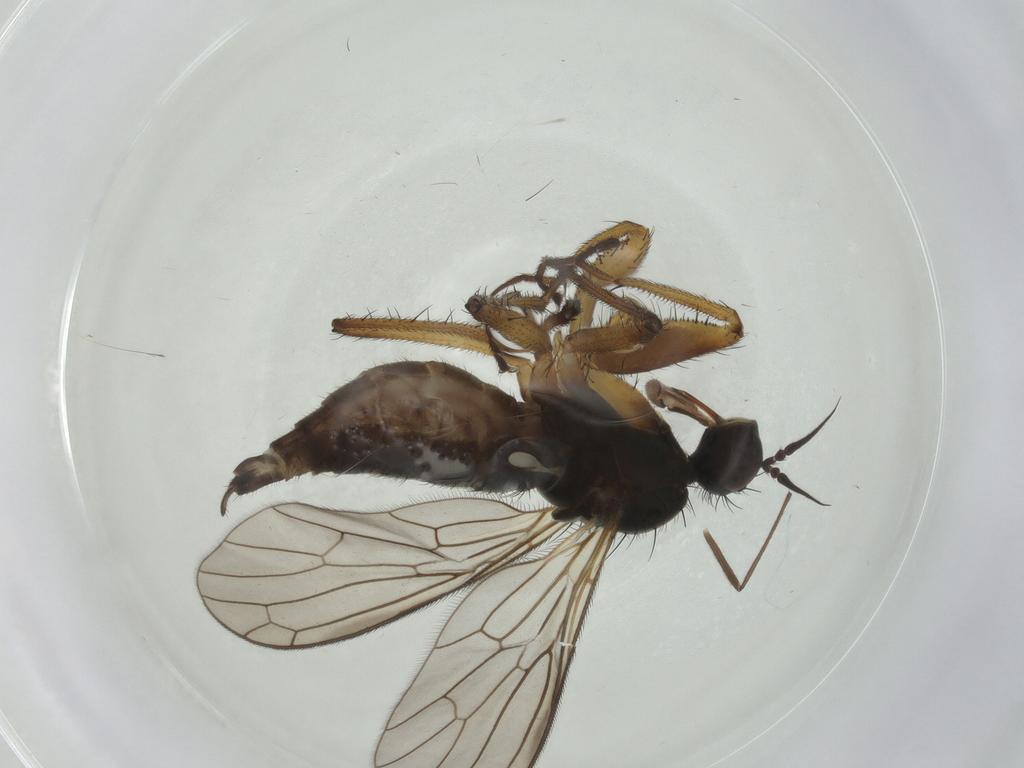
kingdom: Animalia
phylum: Arthropoda
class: Insecta
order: Diptera
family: Empididae
